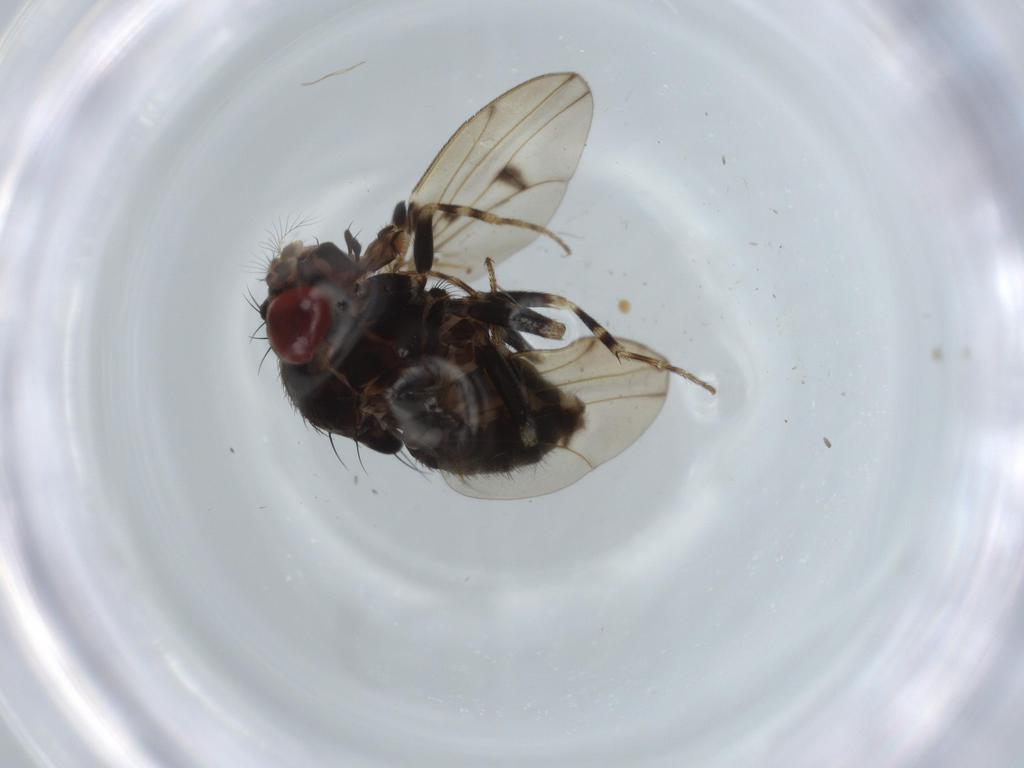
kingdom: Animalia
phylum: Arthropoda
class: Insecta
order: Diptera
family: Drosophilidae
